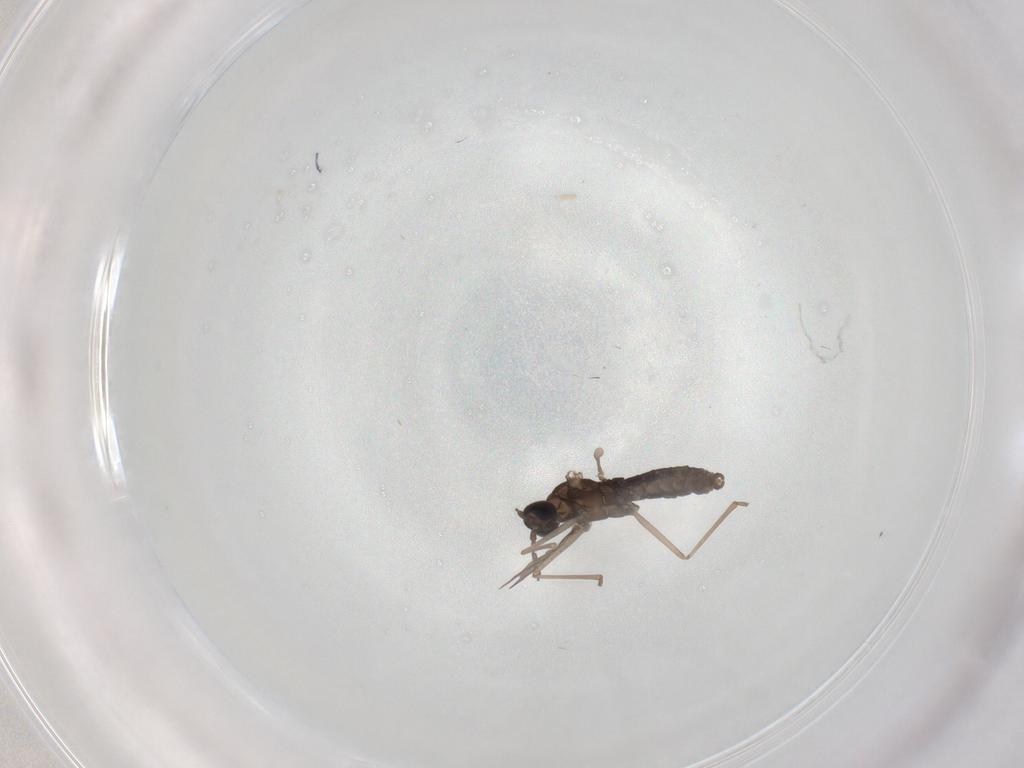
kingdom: Animalia
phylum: Arthropoda
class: Insecta
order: Diptera
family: Cecidomyiidae
